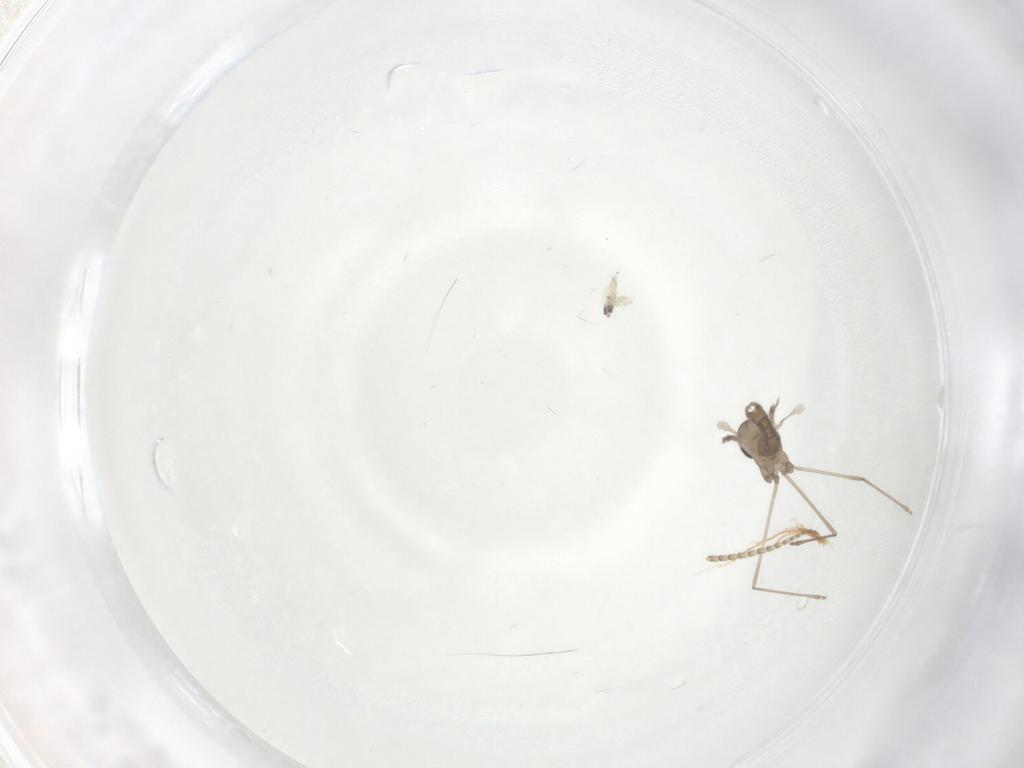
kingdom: Animalia
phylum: Arthropoda
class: Insecta
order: Diptera
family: Cecidomyiidae
